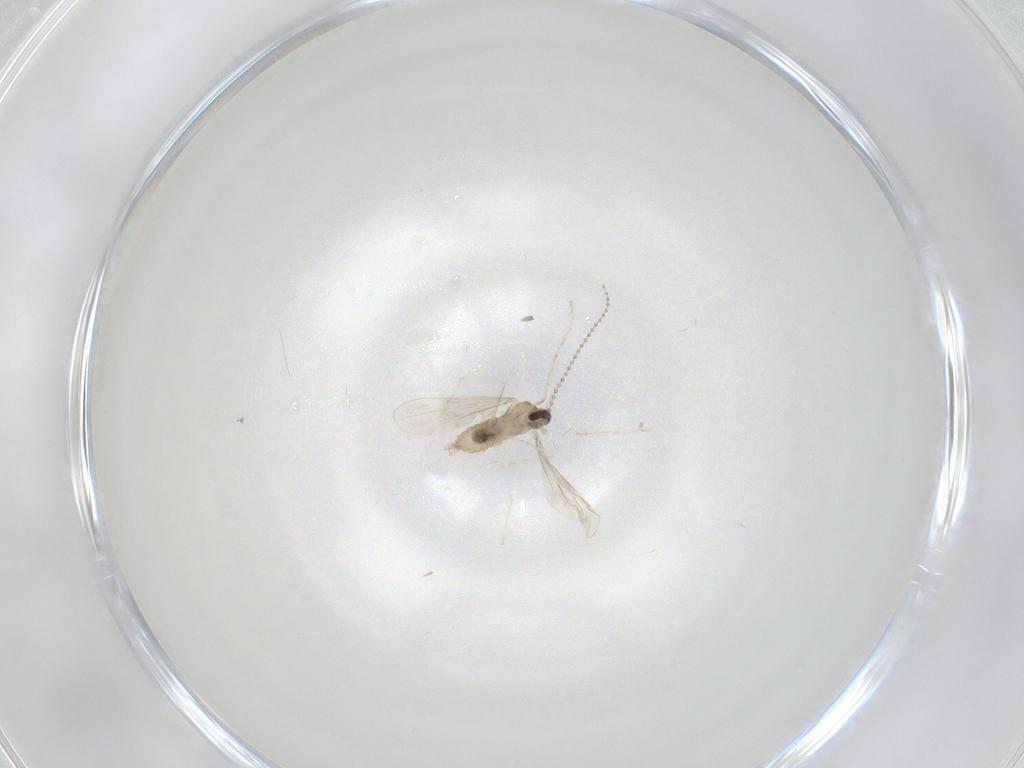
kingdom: Animalia
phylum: Arthropoda
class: Insecta
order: Diptera
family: Cecidomyiidae
